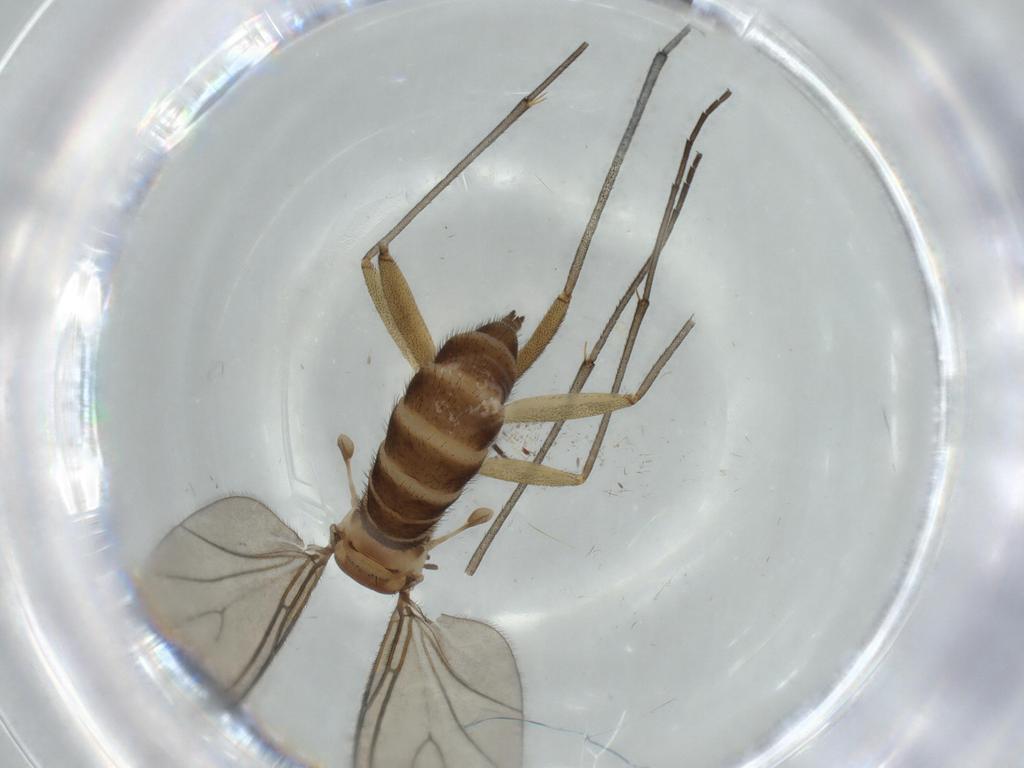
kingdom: Animalia
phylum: Arthropoda
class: Insecta
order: Diptera
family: Sciaridae
